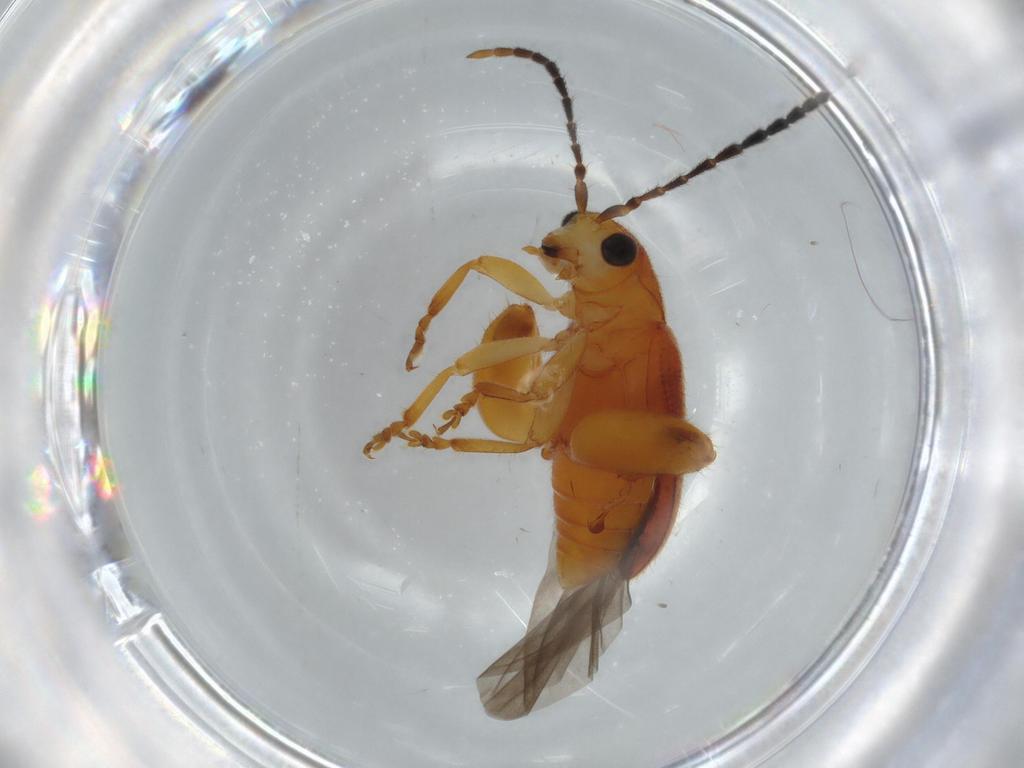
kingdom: Animalia
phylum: Arthropoda
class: Insecta
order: Coleoptera
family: Chrysomelidae
